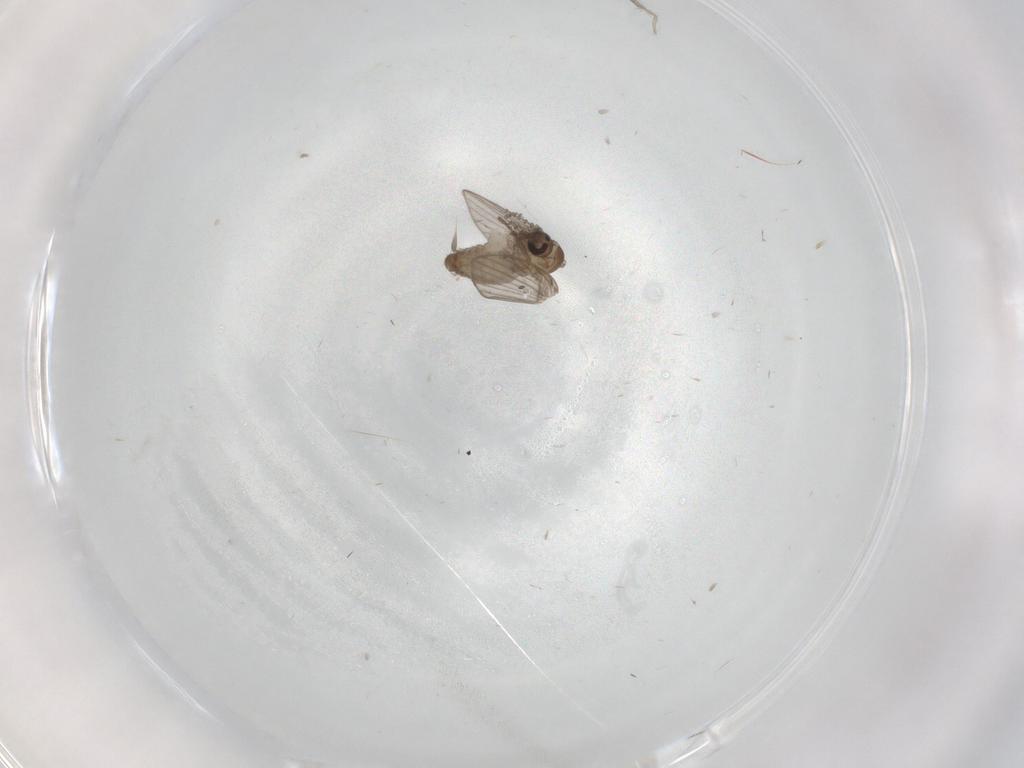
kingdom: Animalia
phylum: Arthropoda
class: Insecta
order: Diptera
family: Psychodidae
